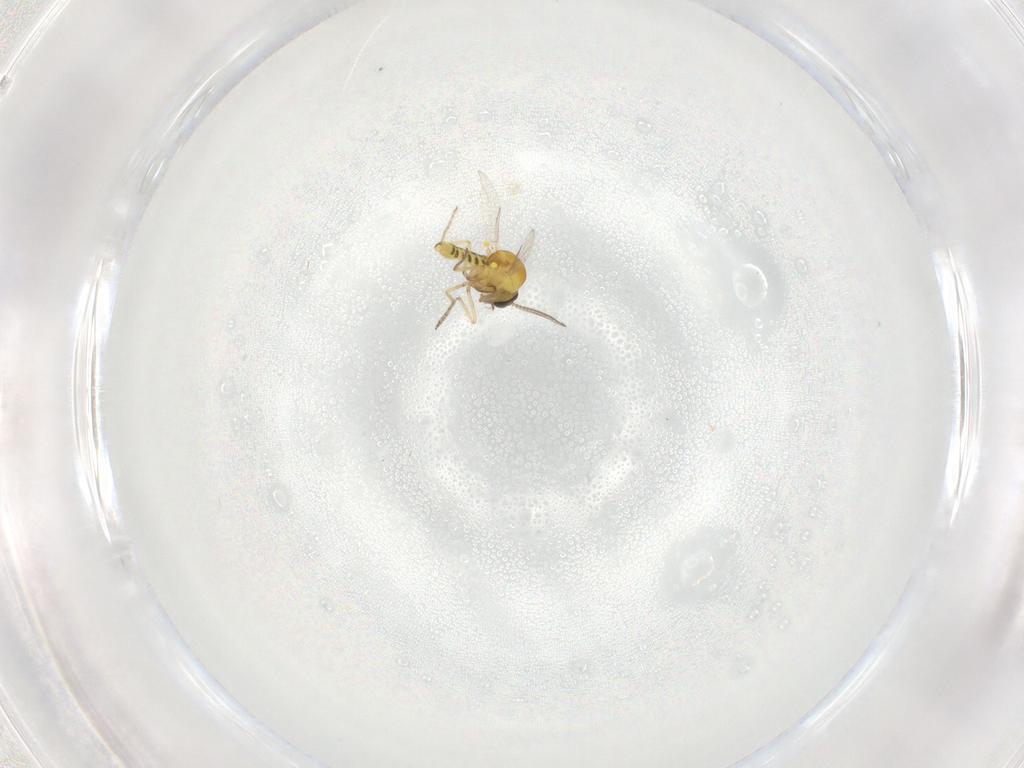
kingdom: Animalia
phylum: Arthropoda
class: Insecta
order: Diptera
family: Ceratopogonidae
